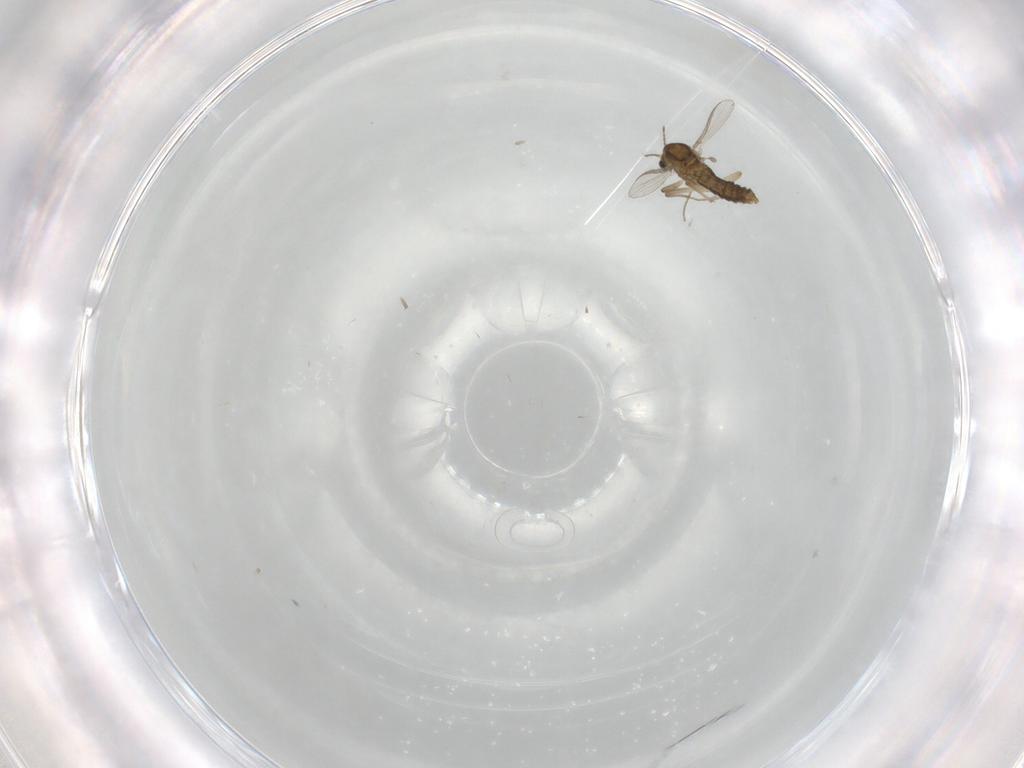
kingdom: Animalia
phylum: Arthropoda
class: Insecta
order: Diptera
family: Chironomidae
